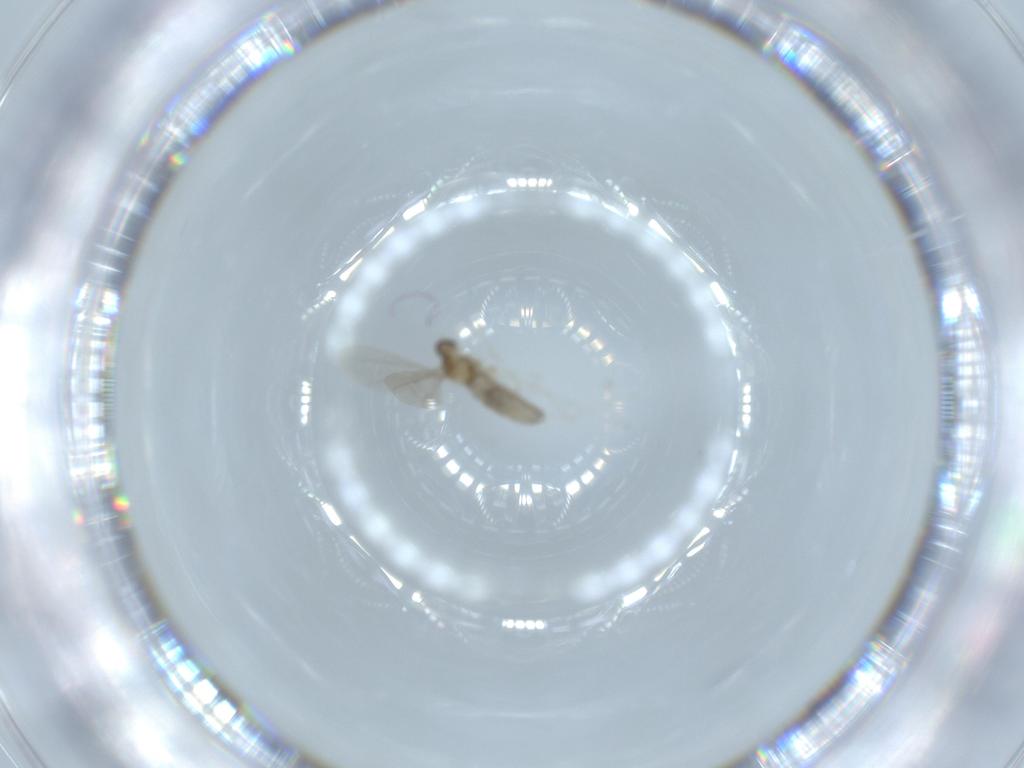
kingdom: Animalia
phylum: Arthropoda
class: Insecta
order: Diptera
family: Cecidomyiidae
